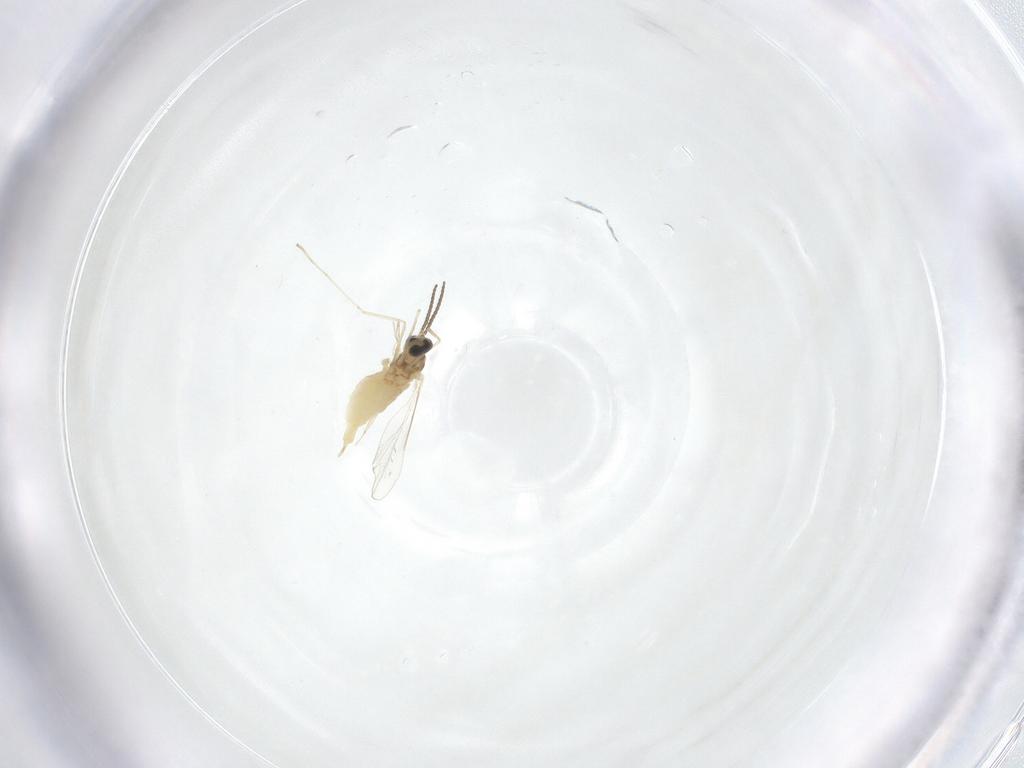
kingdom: Animalia
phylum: Arthropoda
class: Insecta
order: Diptera
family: Cecidomyiidae
